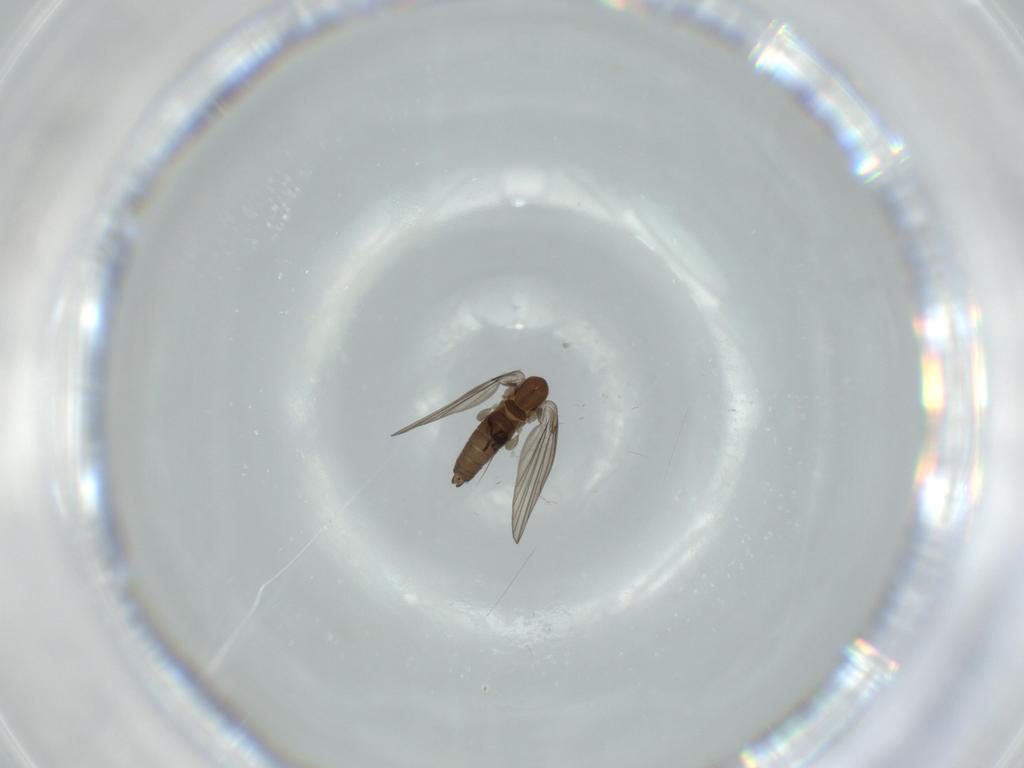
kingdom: Animalia
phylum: Arthropoda
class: Insecta
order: Diptera
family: Psychodidae
